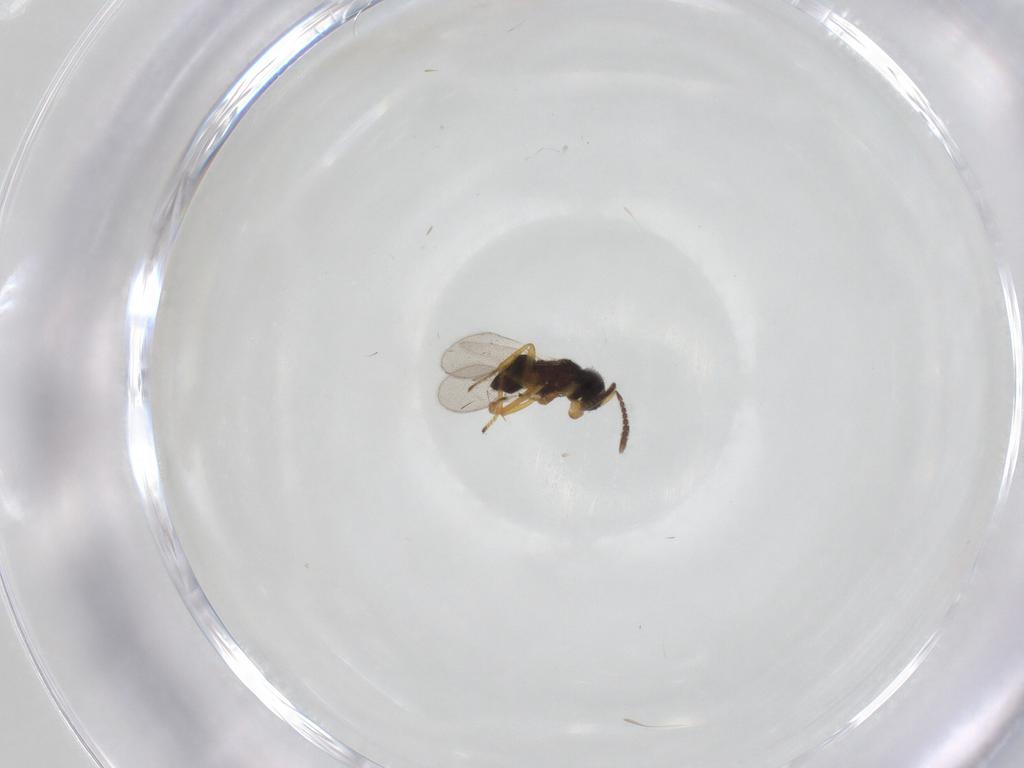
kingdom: Animalia
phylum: Arthropoda
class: Insecta
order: Hymenoptera
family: Encyrtidae
